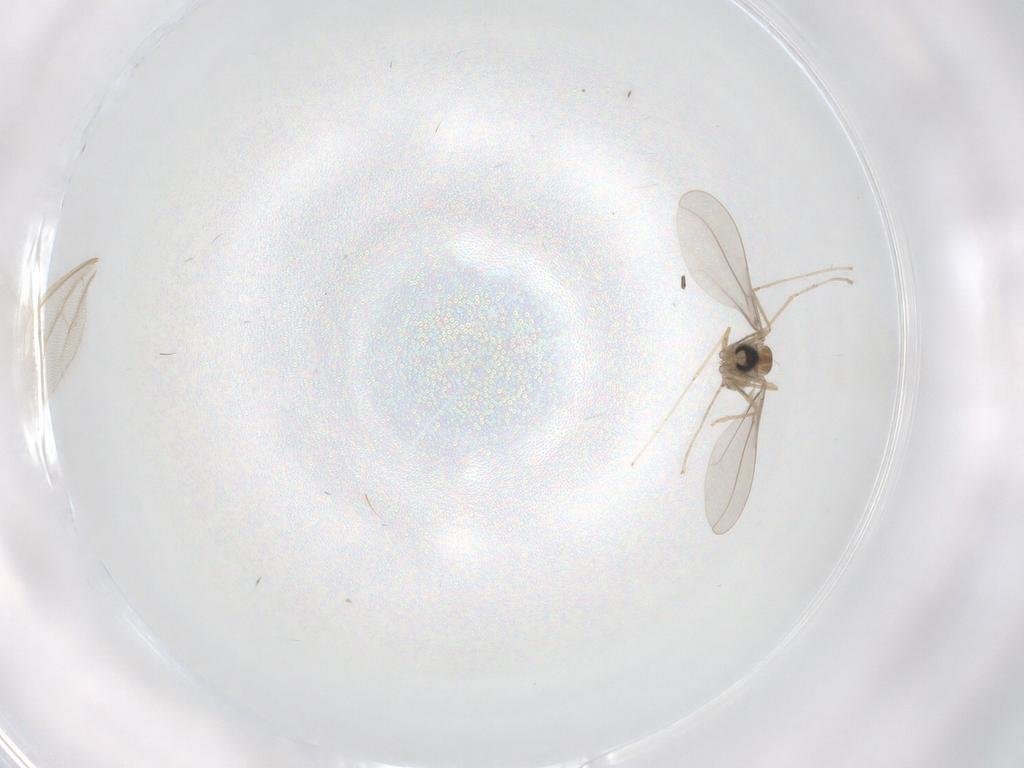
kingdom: Animalia
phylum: Arthropoda
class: Insecta
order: Diptera
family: Cecidomyiidae
